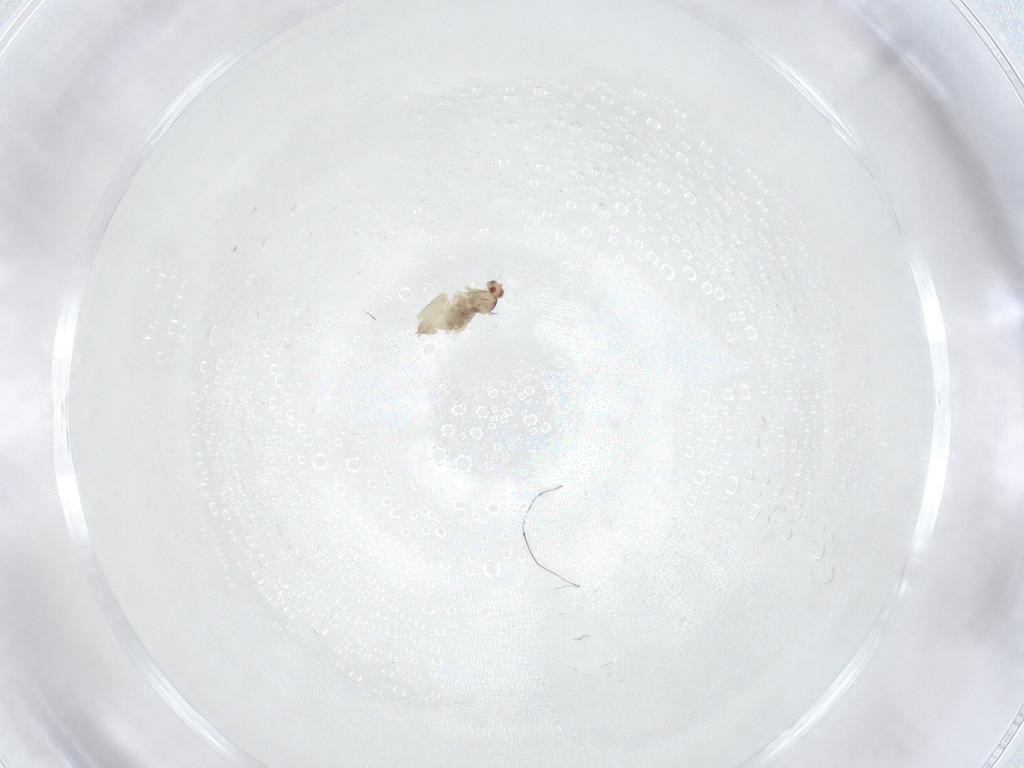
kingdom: Animalia
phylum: Arthropoda
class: Insecta
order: Diptera
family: Cecidomyiidae
